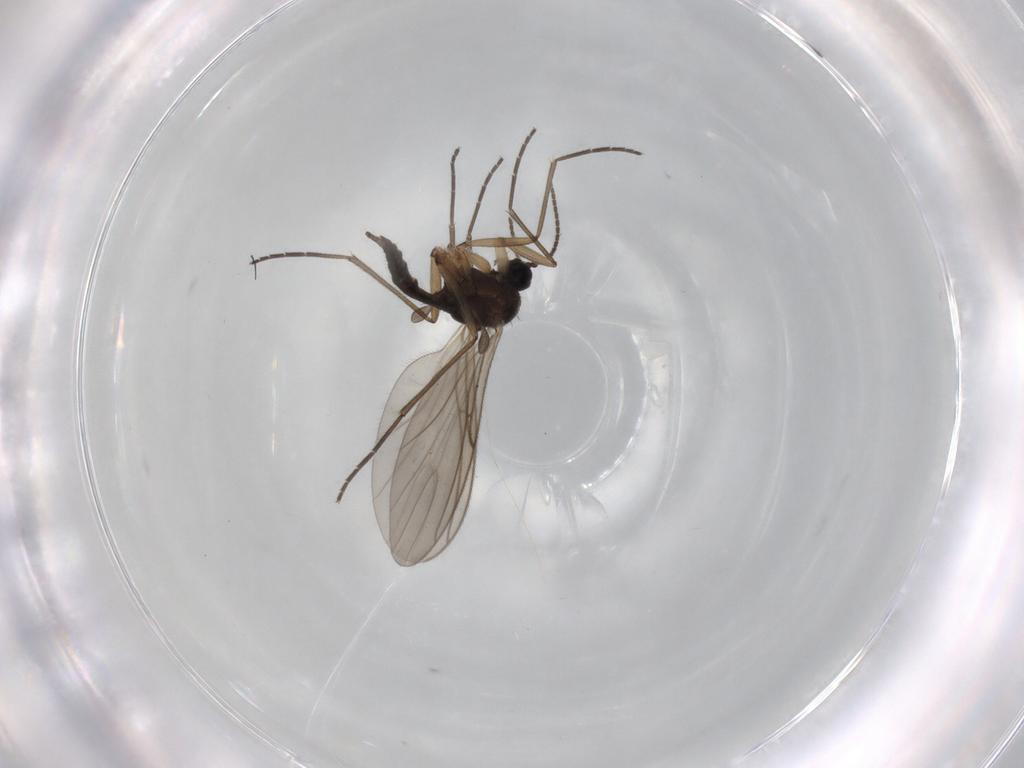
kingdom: Animalia
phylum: Arthropoda
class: Insecta
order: Diptera
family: Sciaridae
